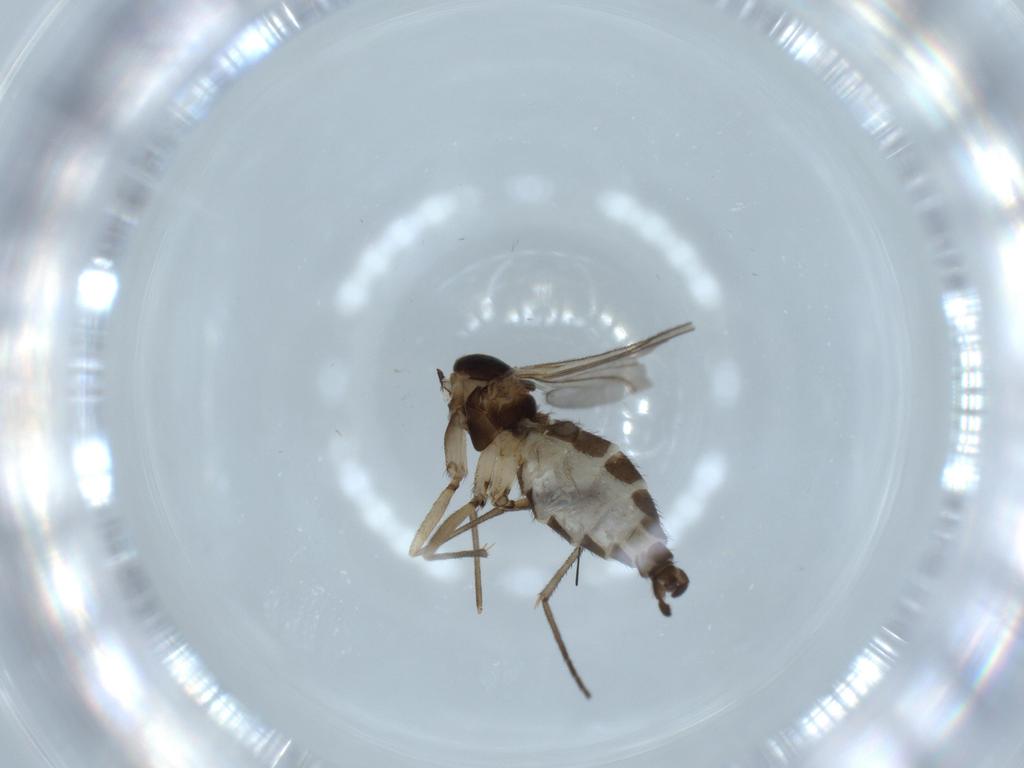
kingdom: Animalia
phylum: Arthropoda
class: Insecta
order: Diptera
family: Sciaridae
